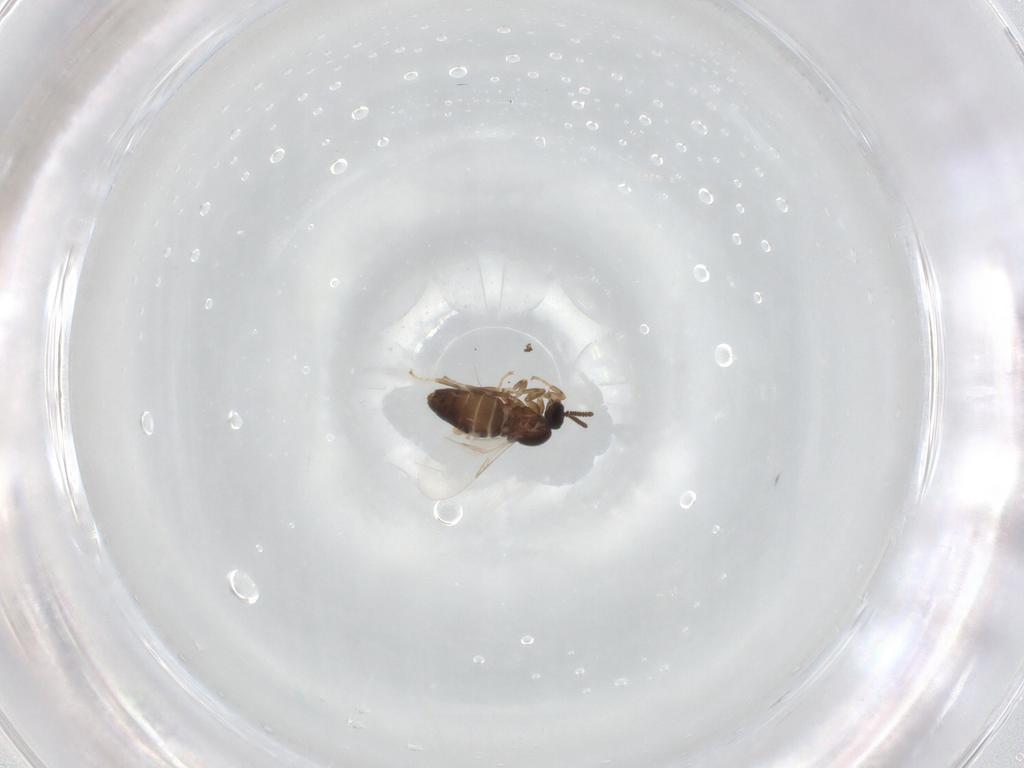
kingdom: Animalia
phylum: Arthropoda
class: Insecta
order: Diptera
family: Scatopsidae
